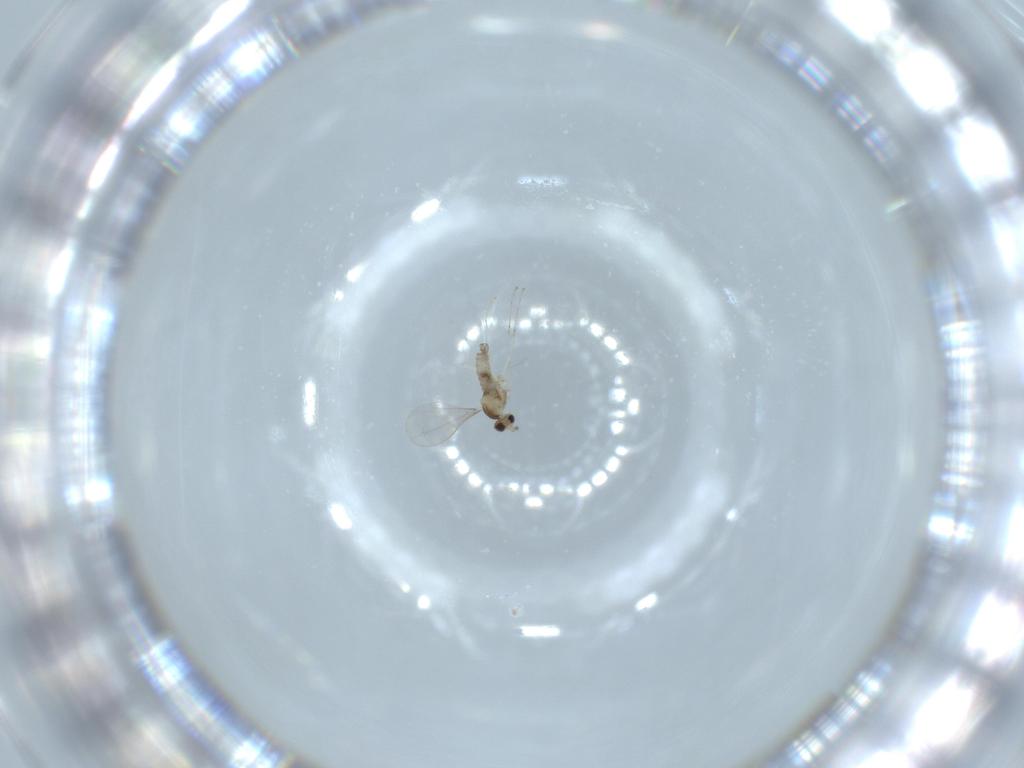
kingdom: Animalia
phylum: Arthropoda
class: Insecta
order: Diptera
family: Cecidomyiidae
